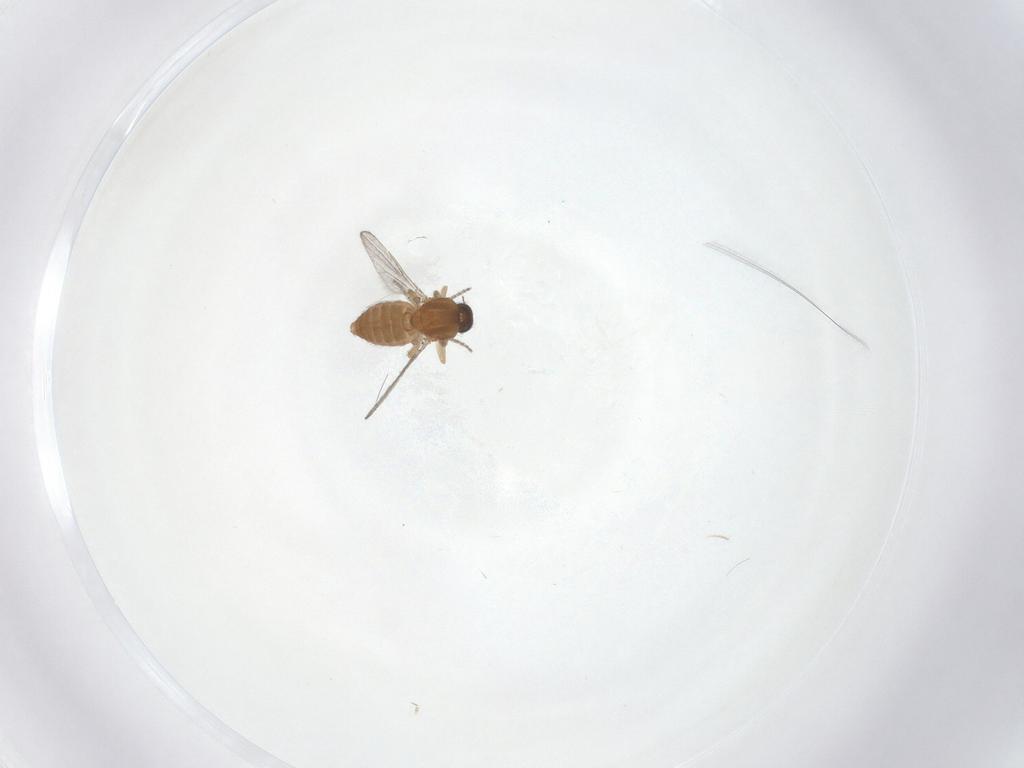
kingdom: Animalia
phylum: Arthropoda
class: Insecta
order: Diptera
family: Ceratopogonidae
